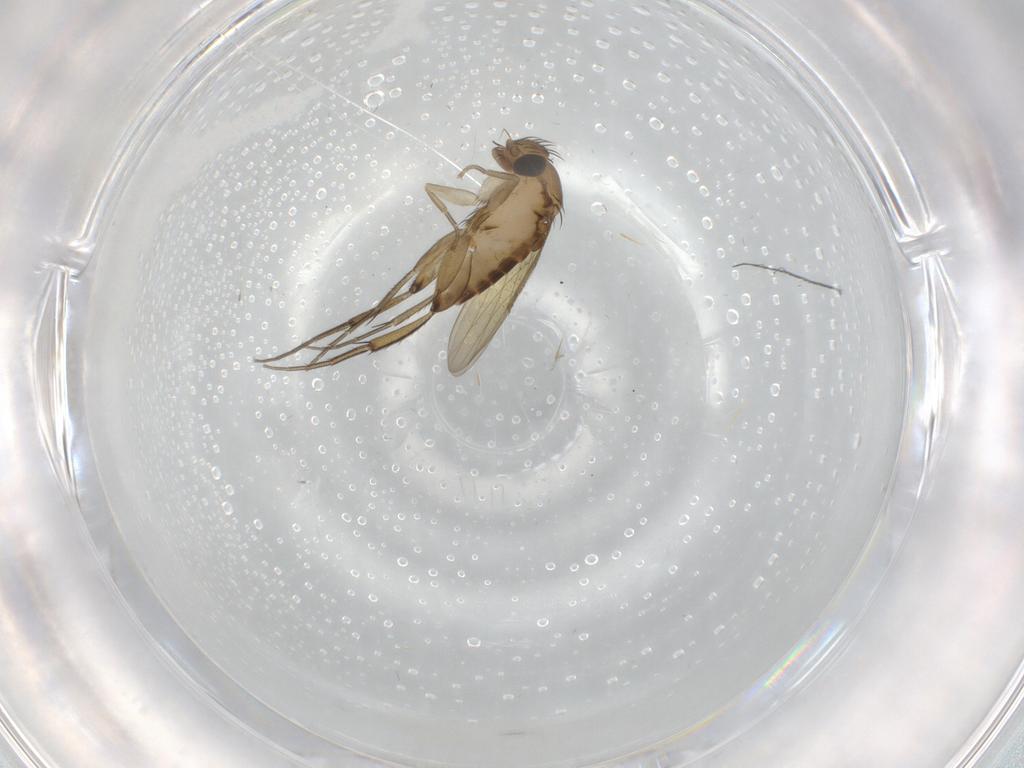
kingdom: Animalia
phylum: Arthropoda
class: Insecta
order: Diptera
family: Phoridae
